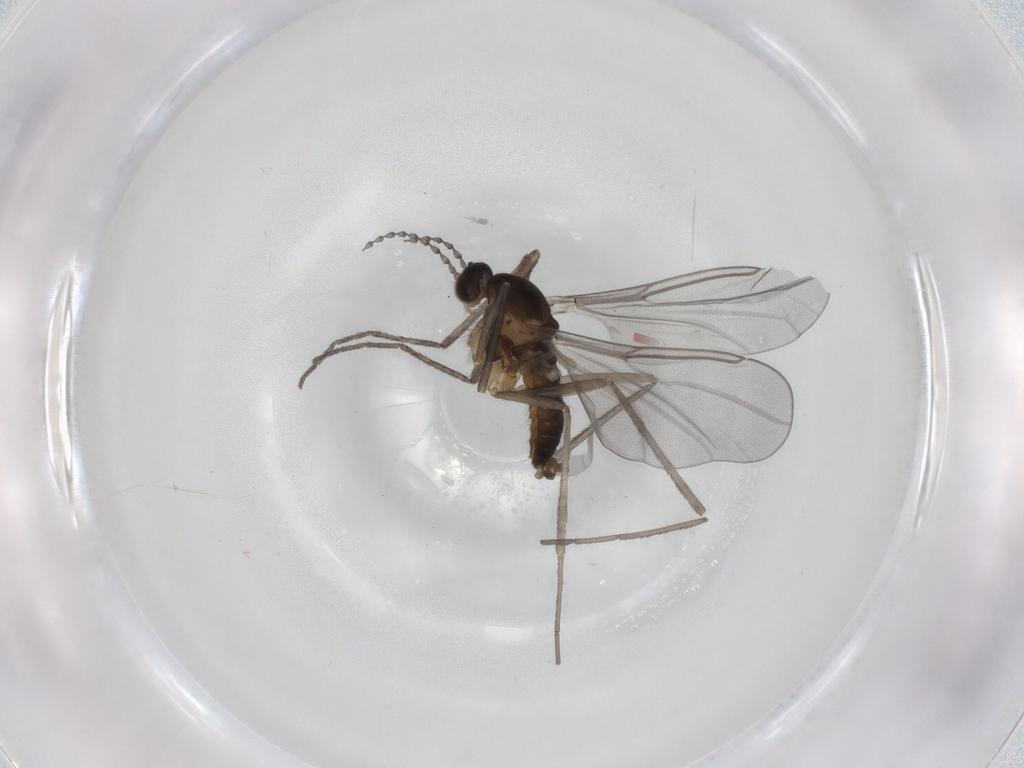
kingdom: Animalia
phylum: Arthropoda
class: Insecta
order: Diptera
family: Cecidomyiidae
